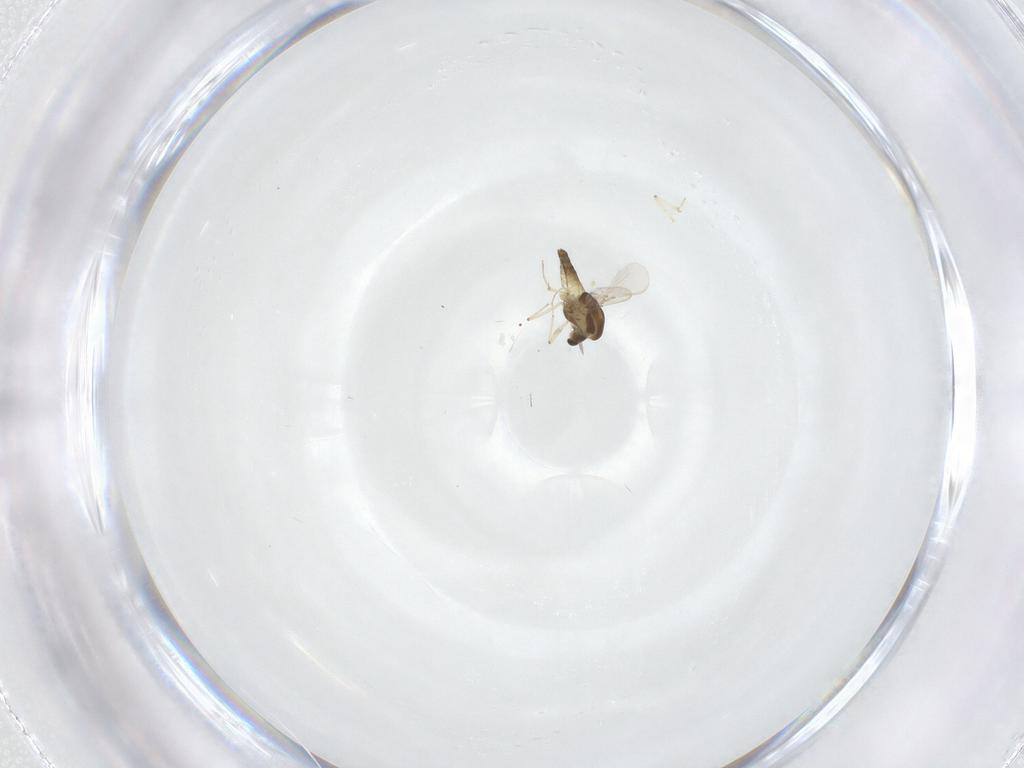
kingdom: Animalia
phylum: Arthropoda
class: Insecta
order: Diptera
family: Chironomidae
